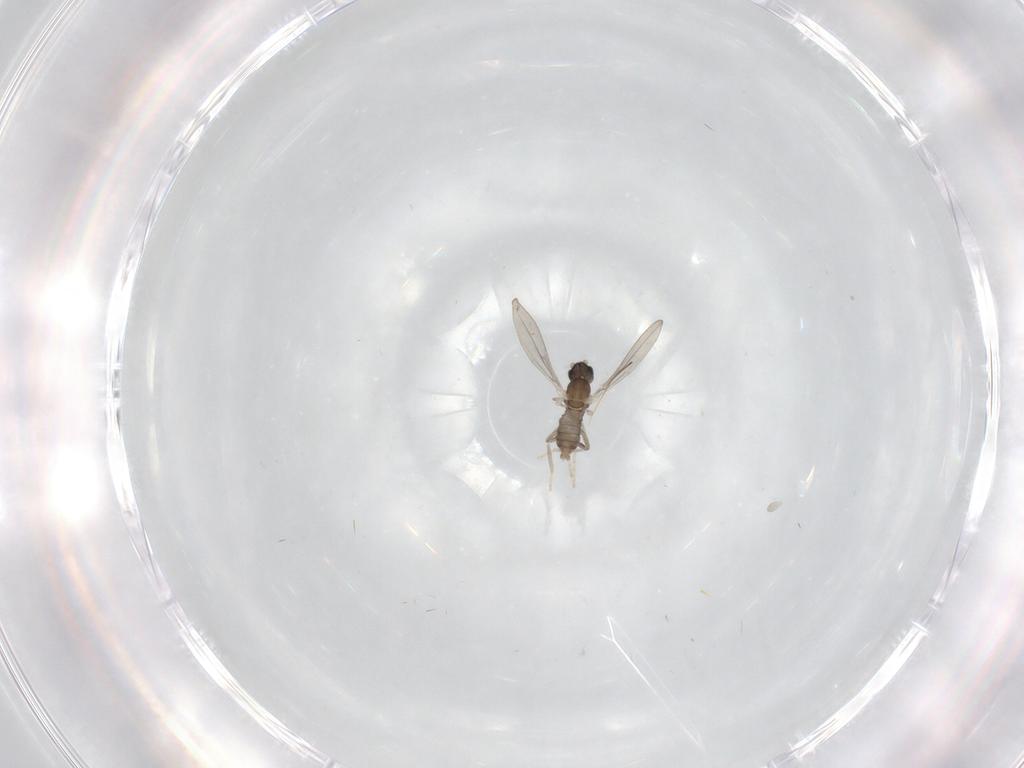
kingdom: Animalia
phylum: Arthropoda
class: Insecta
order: Diptera
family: Cecidomyiidae
